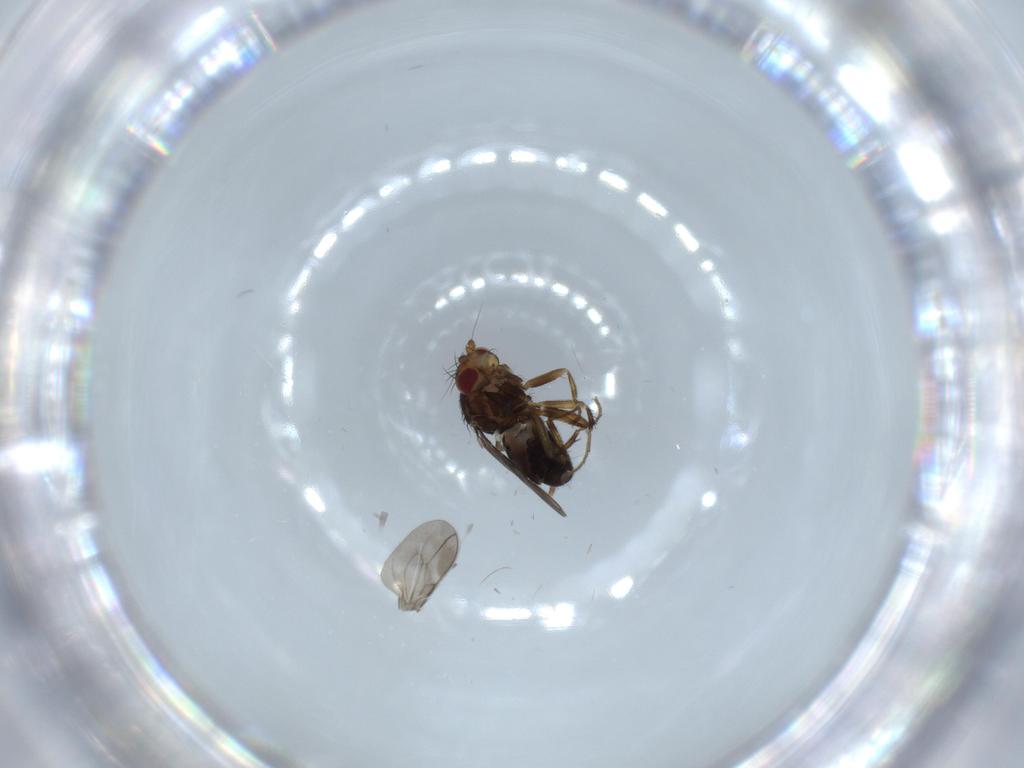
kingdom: Animalia
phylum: Arthropoda
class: Insecta
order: Diptera
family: Sphaeroceridae
